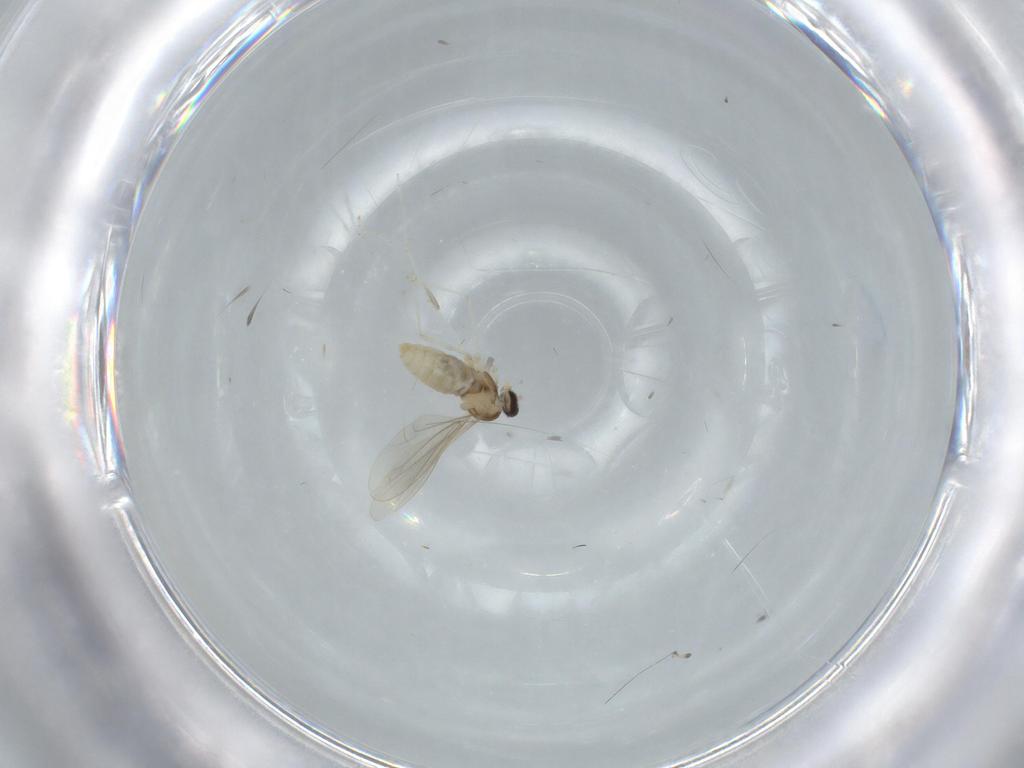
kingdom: Animalia
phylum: Arthropoda
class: Insecta
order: Diptera
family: Cecidomyiidae
